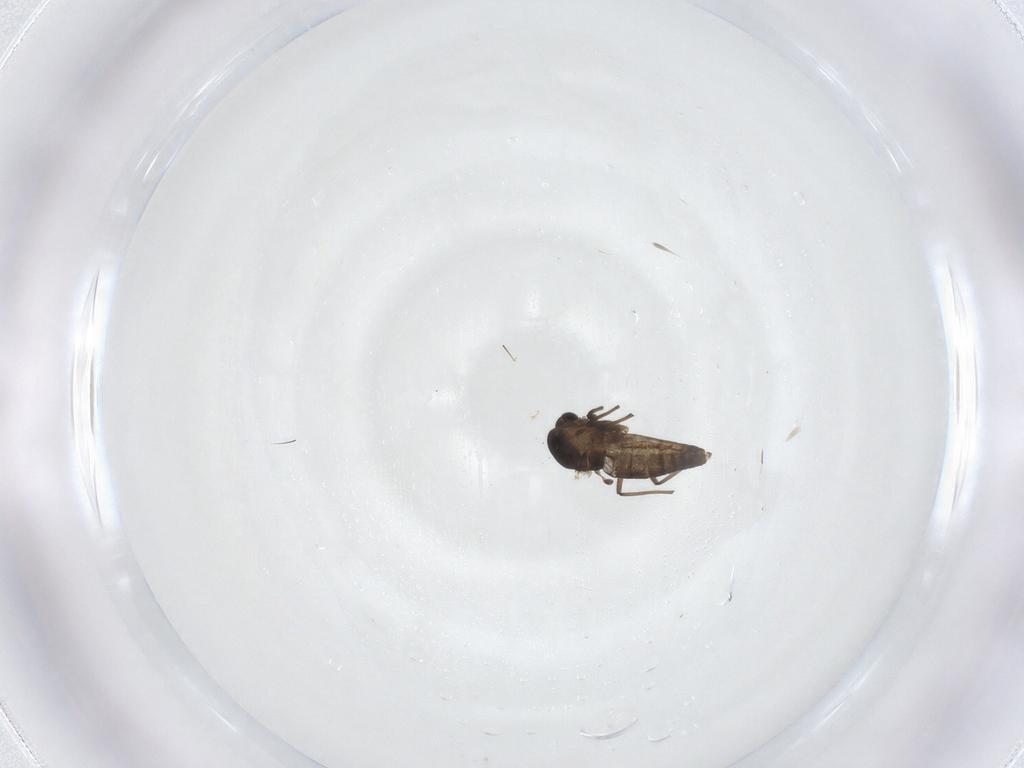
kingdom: Animalia
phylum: Arthropoda
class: Insecta
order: Diptera
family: Chironomidae
